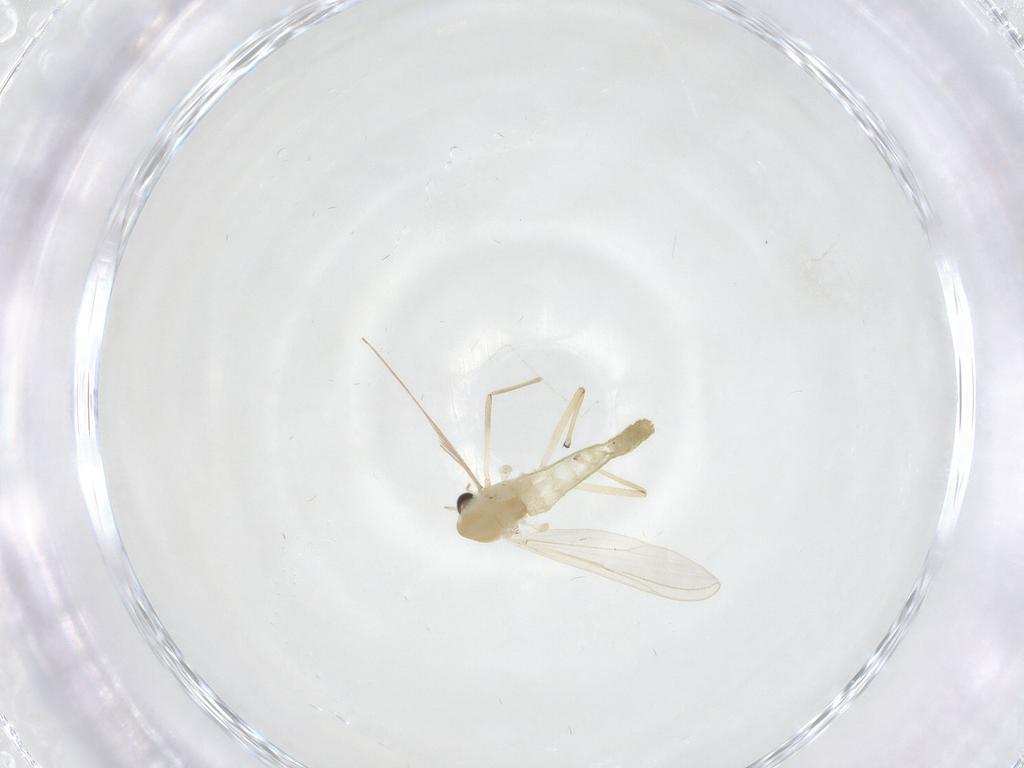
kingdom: Animalia
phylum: Arthropoda
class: Insecta
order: Diptera
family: Chironomidae
